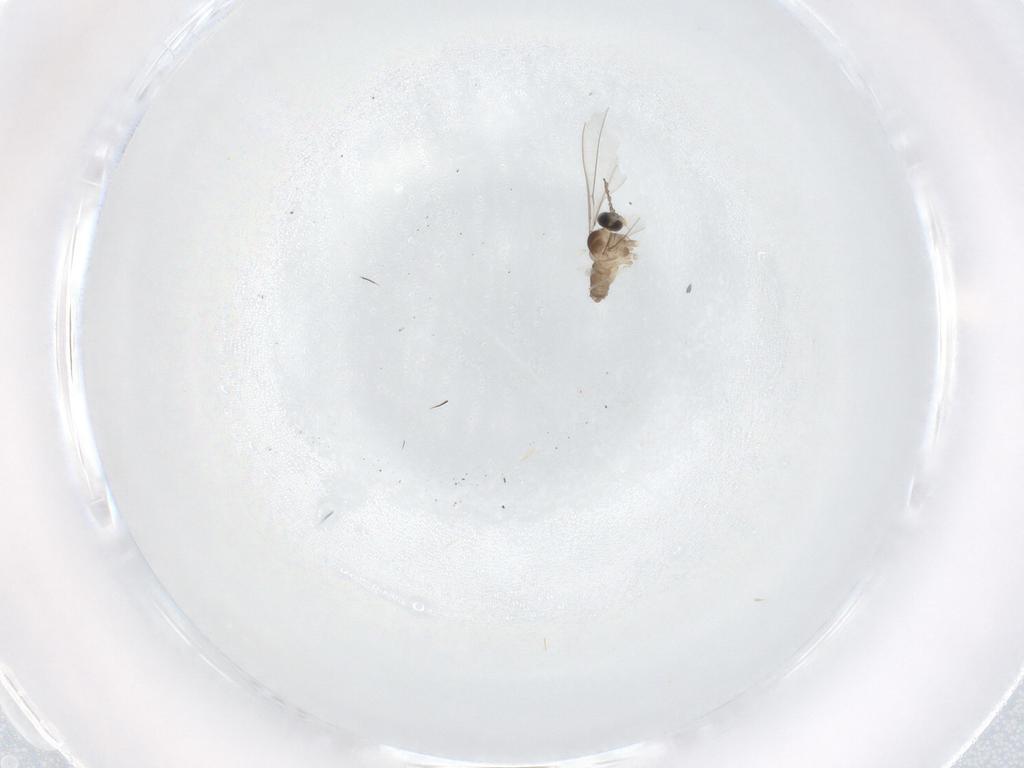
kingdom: Animalia
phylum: Arthropoda
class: Insecta
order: Diptera
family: Cecidomyiidae
